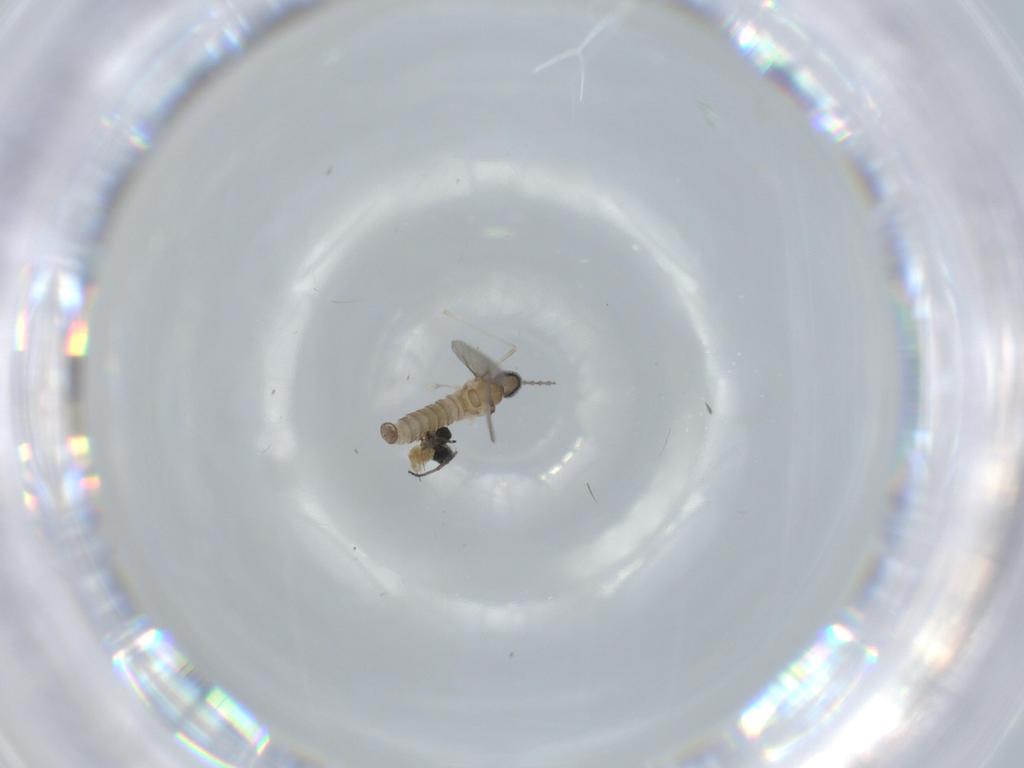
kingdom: Animalia
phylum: Arthropoda
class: Insecta
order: Diptera
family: Cecidomyiidae
